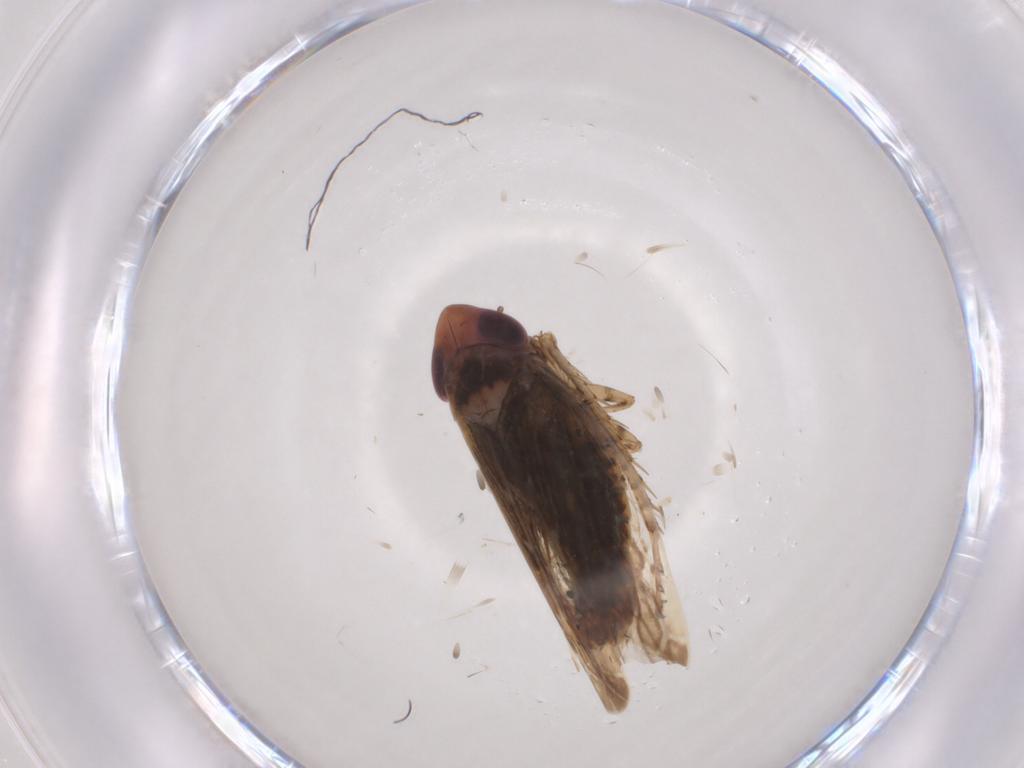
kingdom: Animalia
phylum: Arthropoda
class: Insecta
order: Hemiptera
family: Cicadellidae
